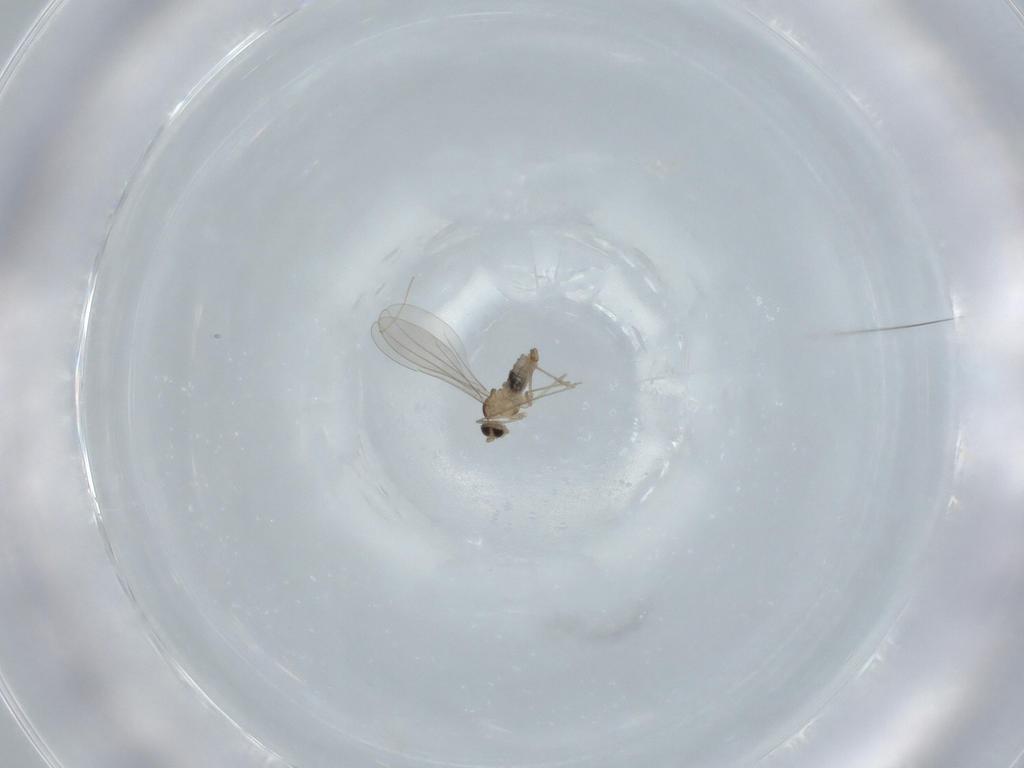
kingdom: Animalia
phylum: Arthropoda
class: Insecta
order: Diptera
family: Cecidomyiidae
